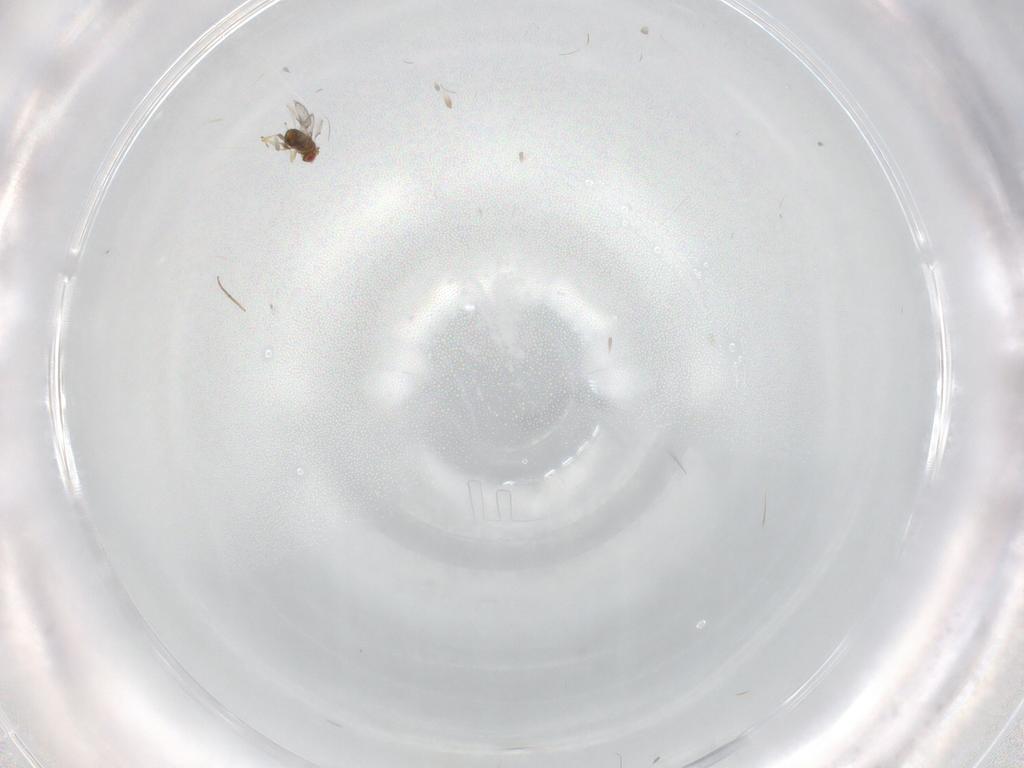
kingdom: Animalia
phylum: Arthropoda
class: Insecta
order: Hymenoptera
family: Mymaridae
